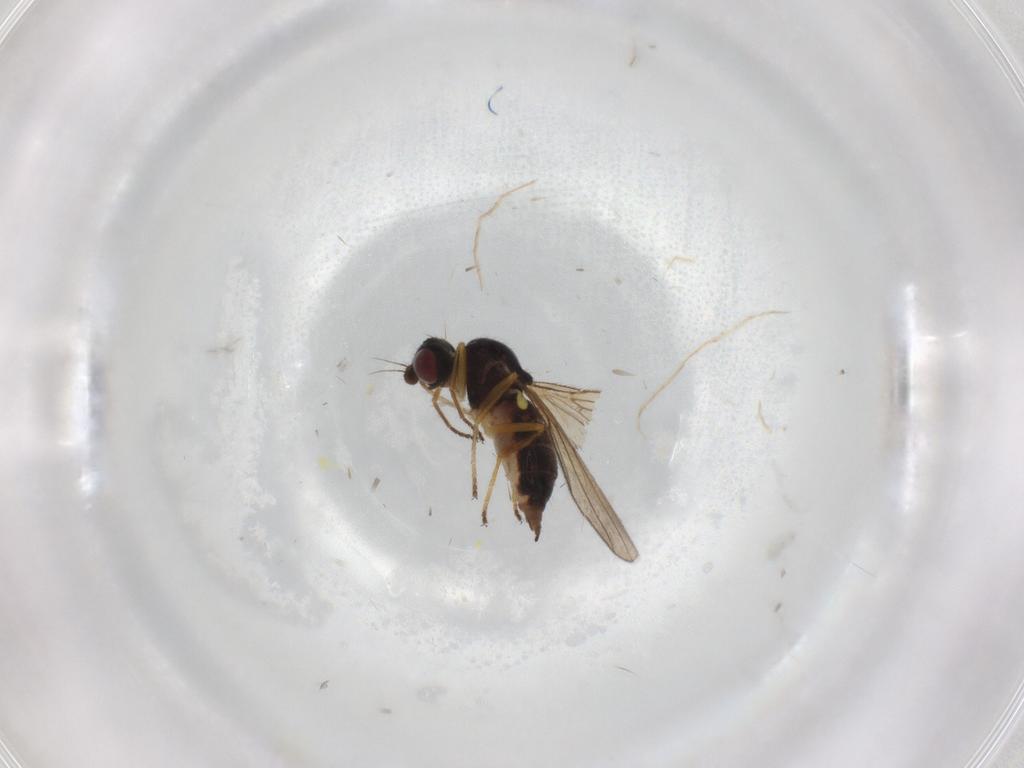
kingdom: Animalia
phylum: Arthropoda
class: Insecta
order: Diptera
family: Chloropidae
